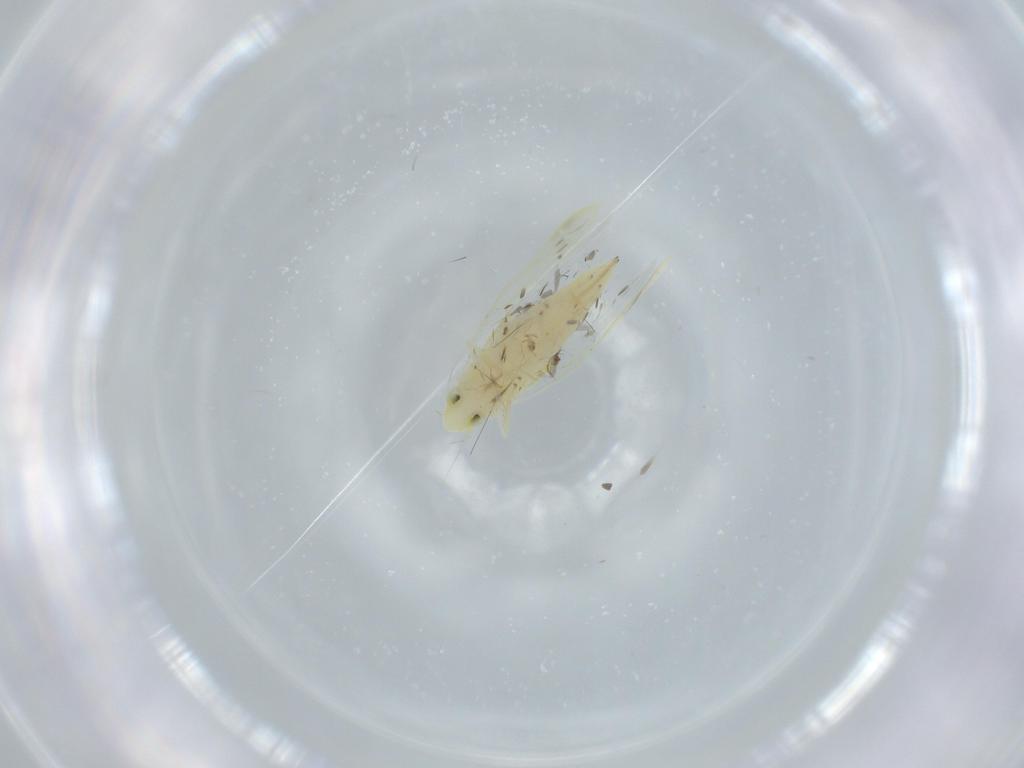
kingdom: Animalia
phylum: Arthropoda
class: Insecta
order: Hemiptera
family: Cicadellidae
